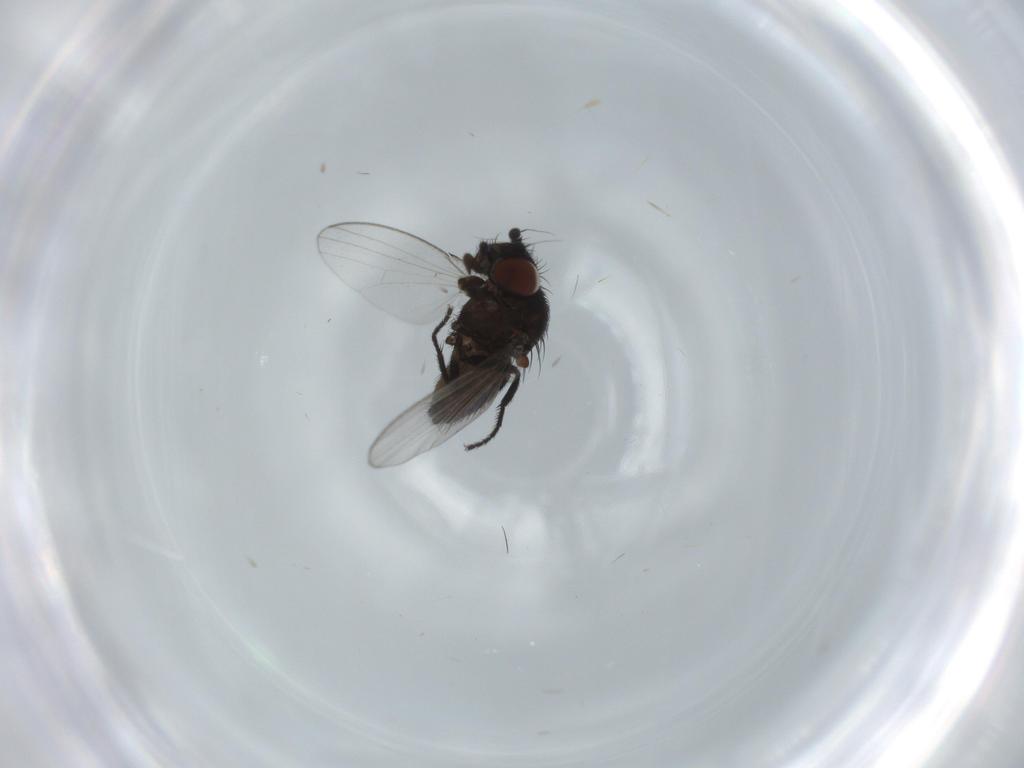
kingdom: Animalia
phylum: Arthropoda
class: Insecta
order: Diptera
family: Milichiidae
